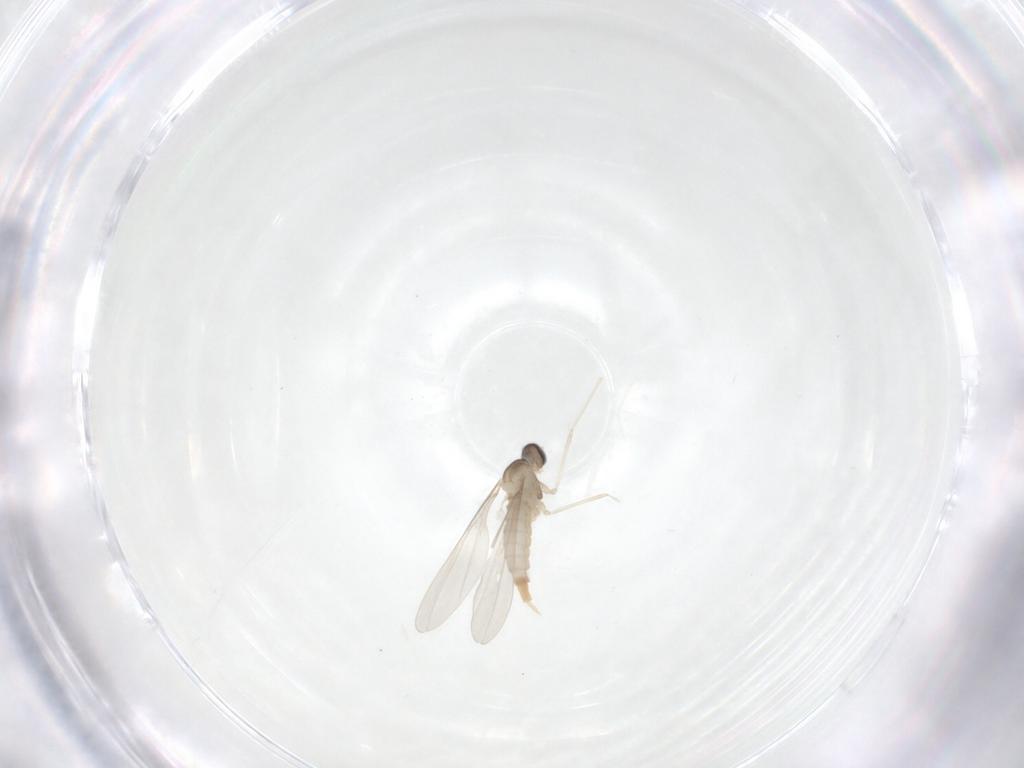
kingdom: Animalia
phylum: Arthropoda
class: Insecta
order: Diptera
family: Hybotidae
